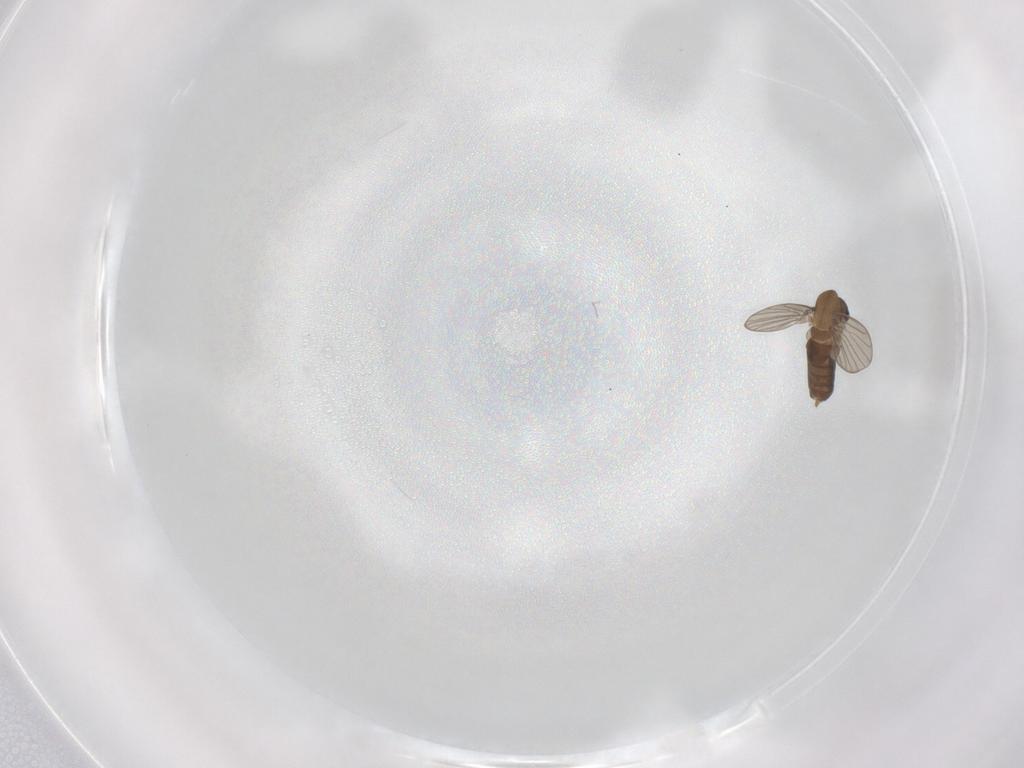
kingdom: Animalia
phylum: Arthropoda
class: Insecta
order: Diptera
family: Chironomidae
